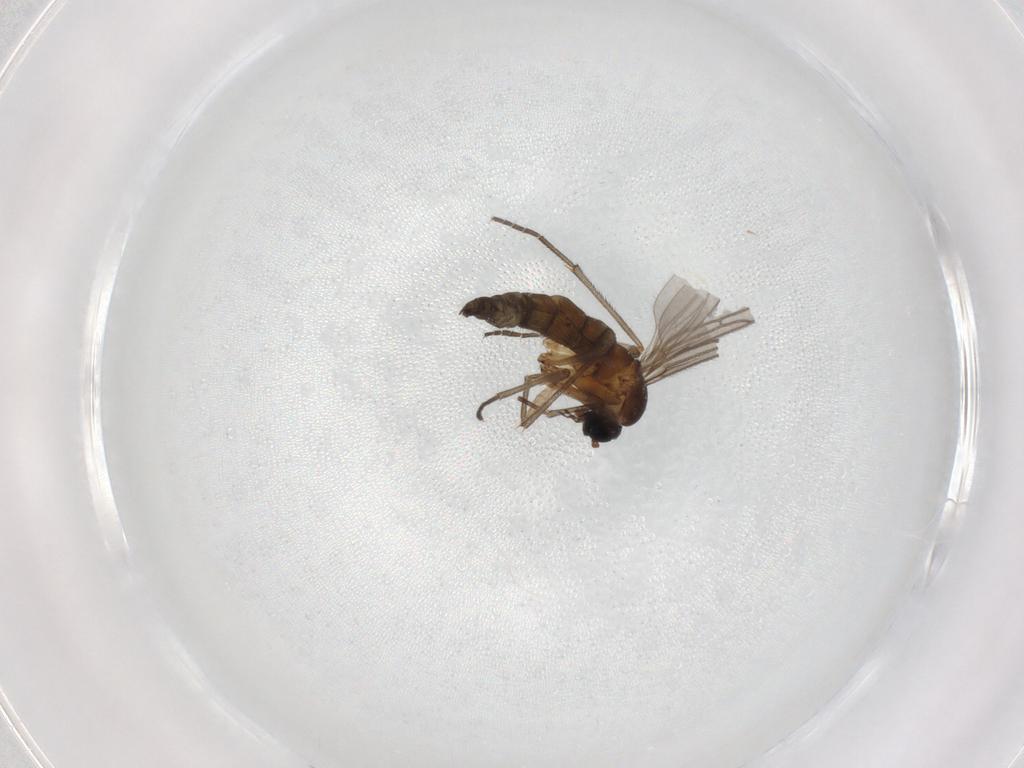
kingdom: Animalia
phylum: Arthropoda
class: Insecta
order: Diptera
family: Sciaridae
